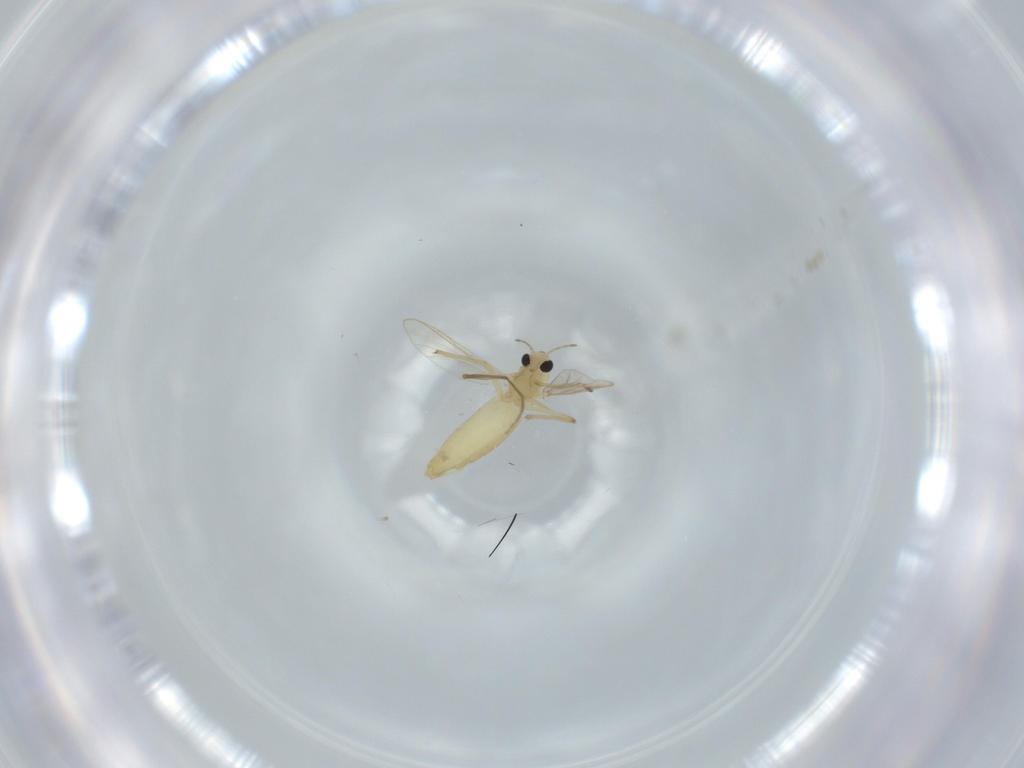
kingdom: Animalia
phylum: Arthropoda
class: Insecta
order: Diptera
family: Chironomidae
